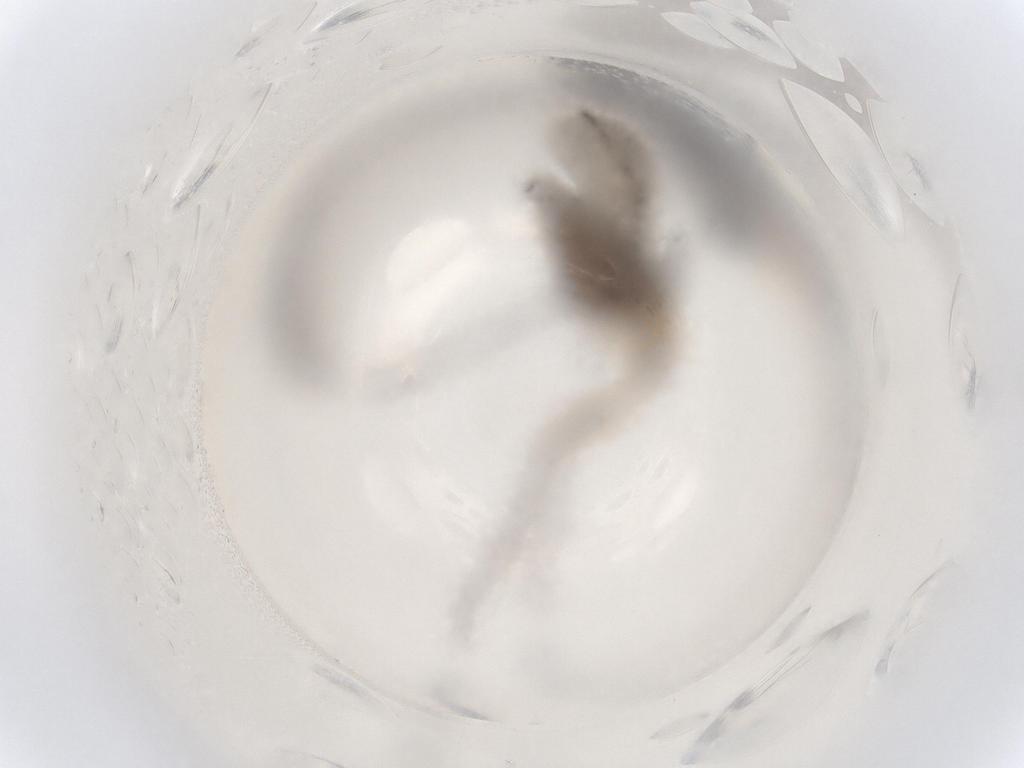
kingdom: Animalia
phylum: Arthropoda
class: Insecta
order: Diptera
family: Sciaridae
